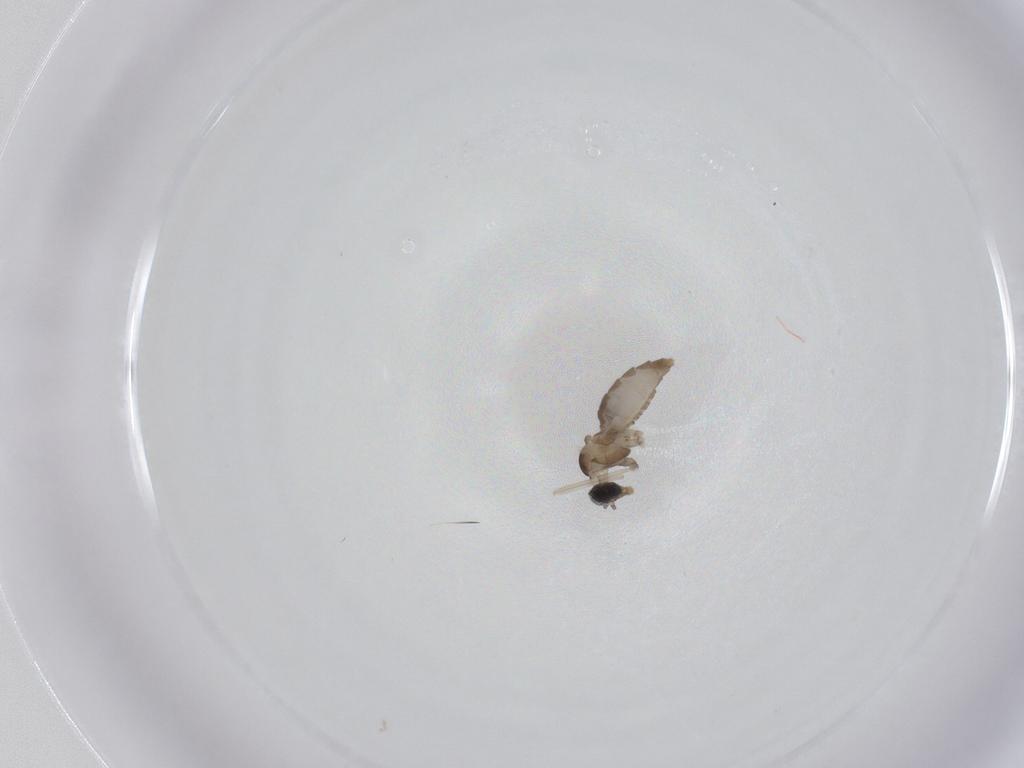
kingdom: Animalia
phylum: Arthropoda
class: Insecta
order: Diptera
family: Cecidomyiidae
